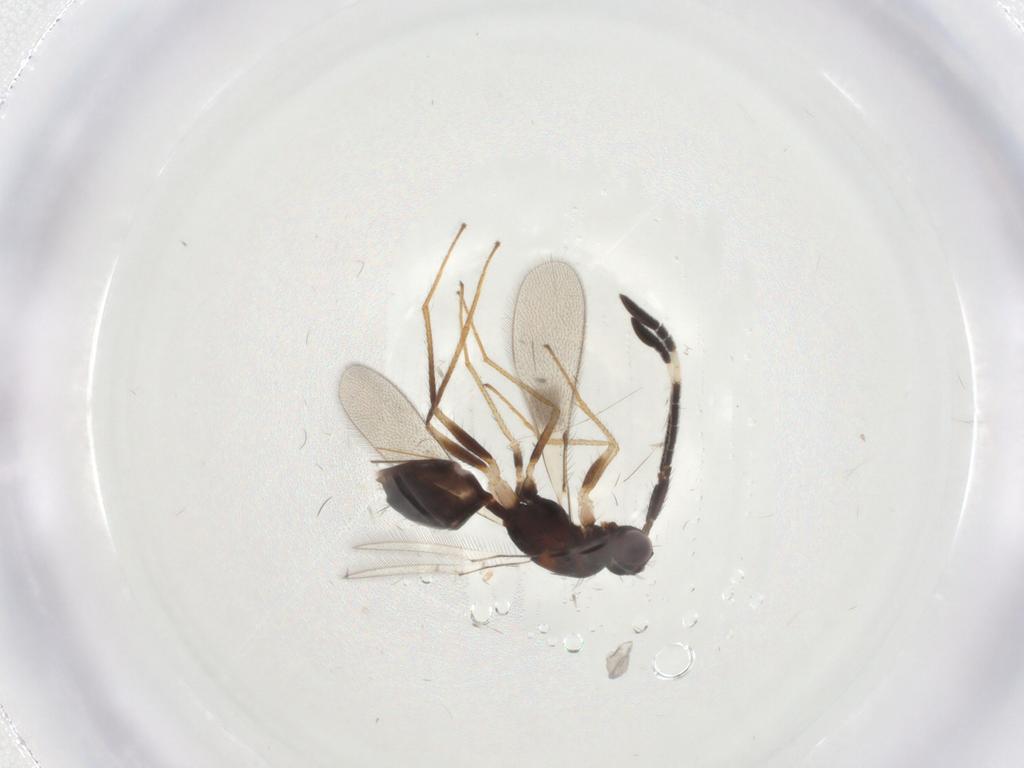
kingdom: Animalia
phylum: Arthropoda
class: Insecta
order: Hymenoptera
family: Mymaridae
